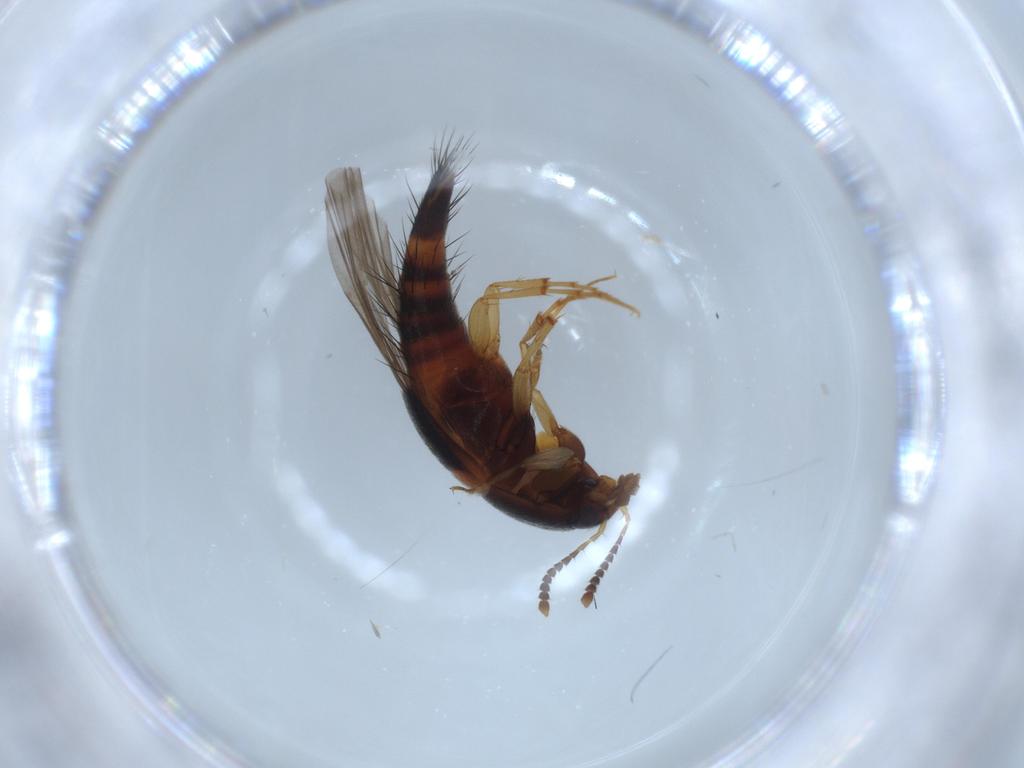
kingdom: Animalia
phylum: Arthropoda
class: Insecta
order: Coleoptera
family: Staphylinidae
